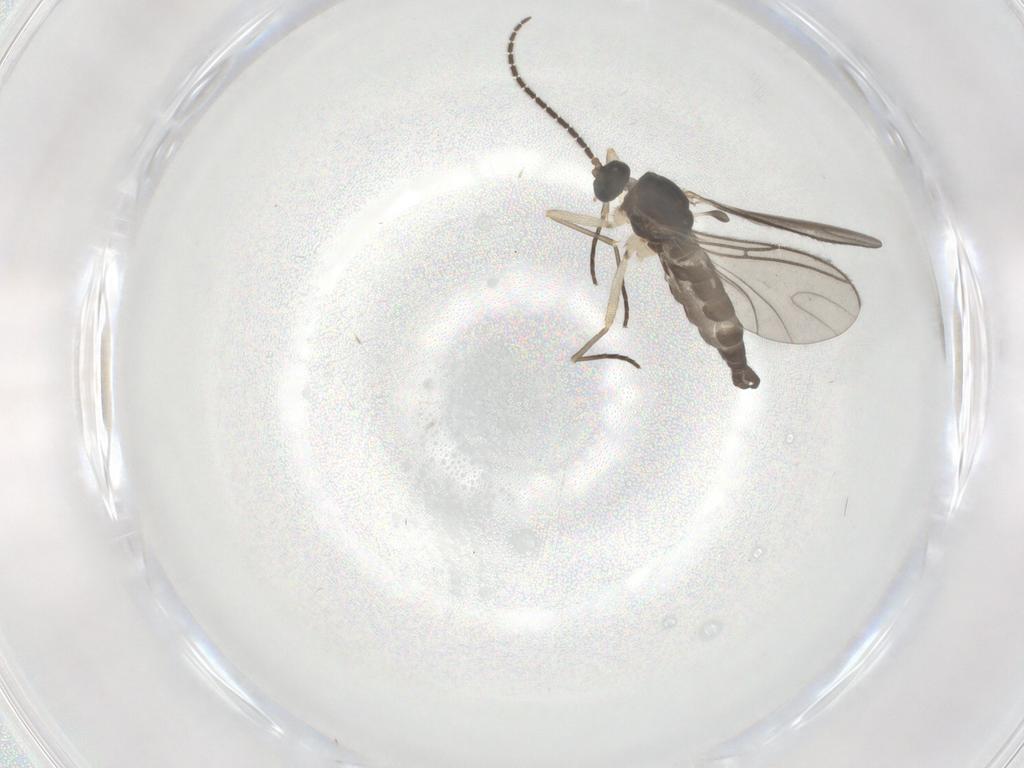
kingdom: Animalia
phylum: Arthropoda
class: Insecta
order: Diptera
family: Sciaridae
